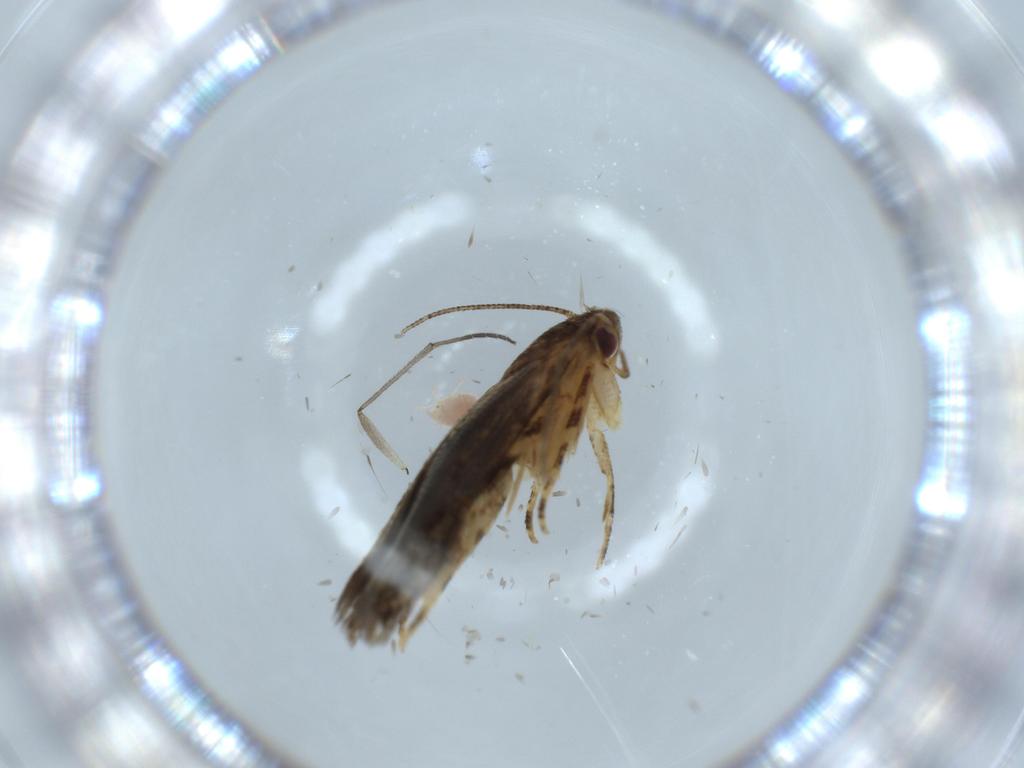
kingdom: Animalia
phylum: Arthropoda
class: Insecta
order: Lepidoptera
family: Momphidae
